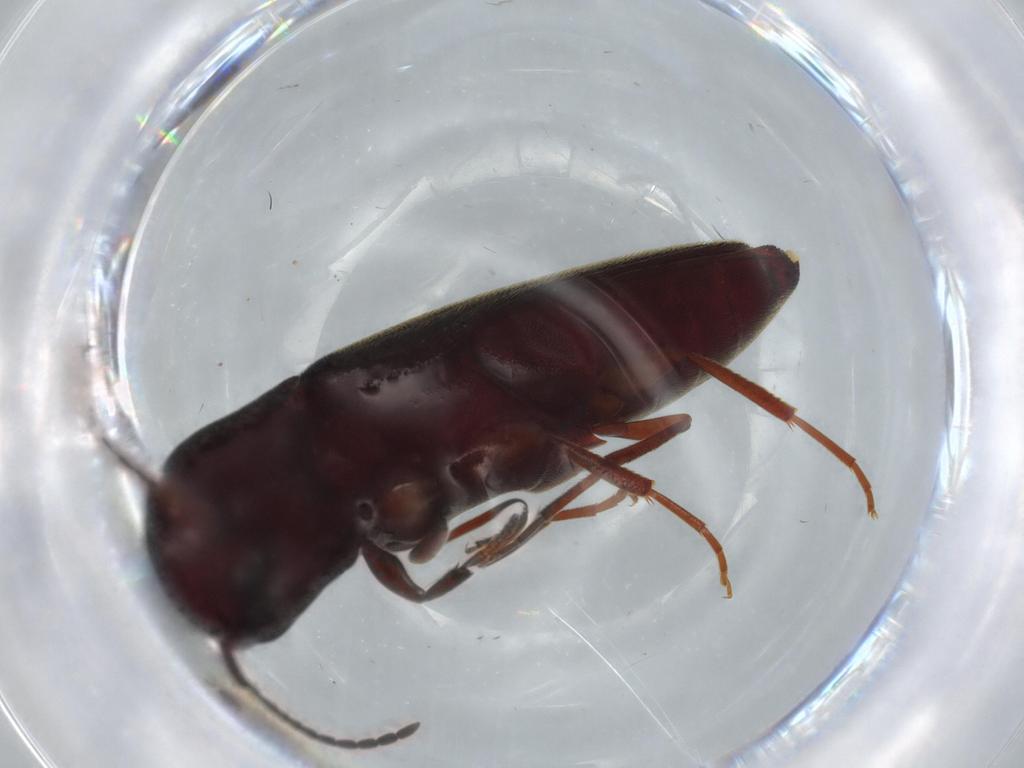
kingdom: Animalia
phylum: Arthropoda
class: Insecta
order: Coleoptera
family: Eucnemidae
